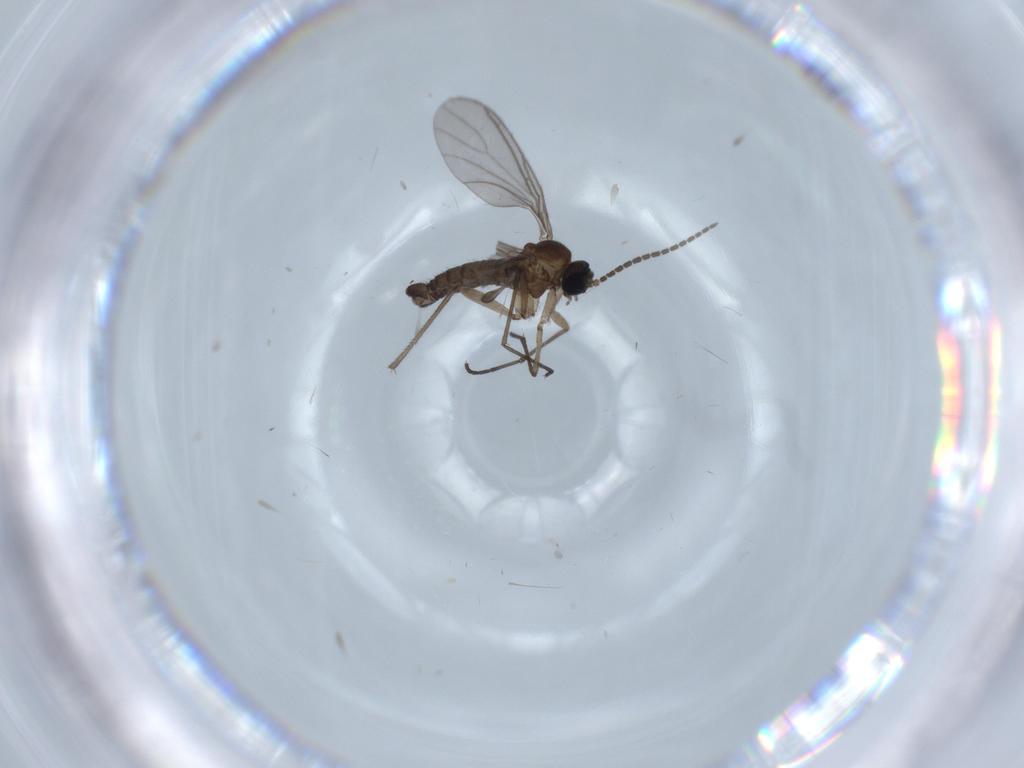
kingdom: Animalia
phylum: Arthropoda
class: Insecta
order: Diptera
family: Sciaridae
